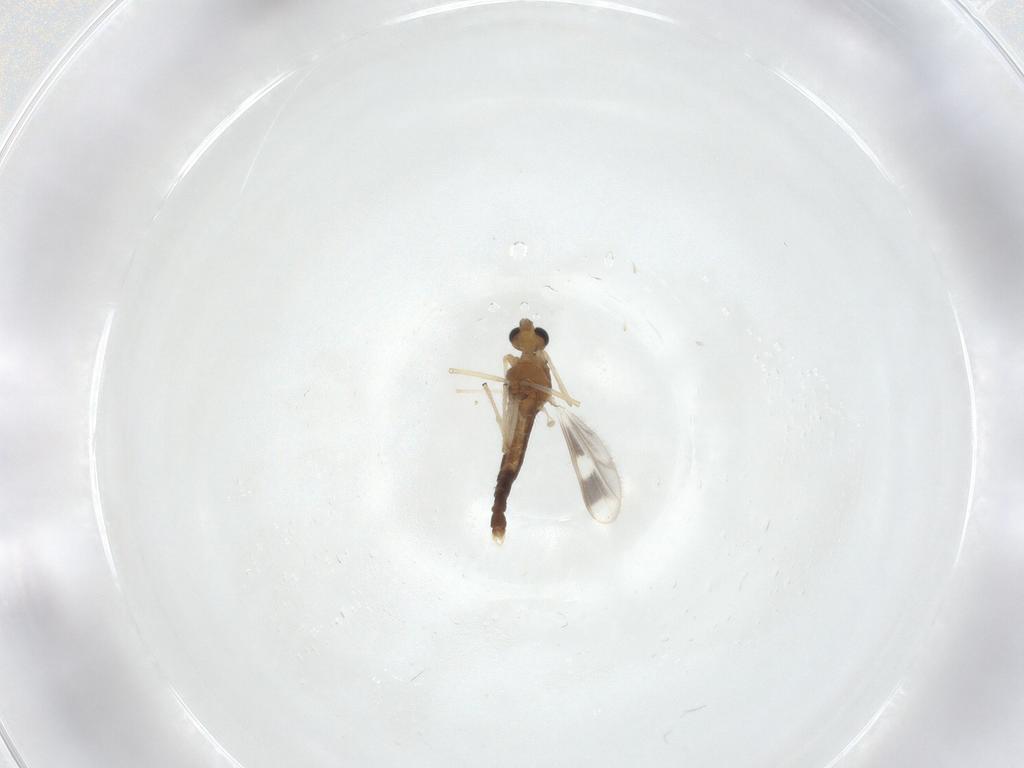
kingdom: Animalia
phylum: Arthropoda
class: Insecta
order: Diptera
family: Chironomidae
